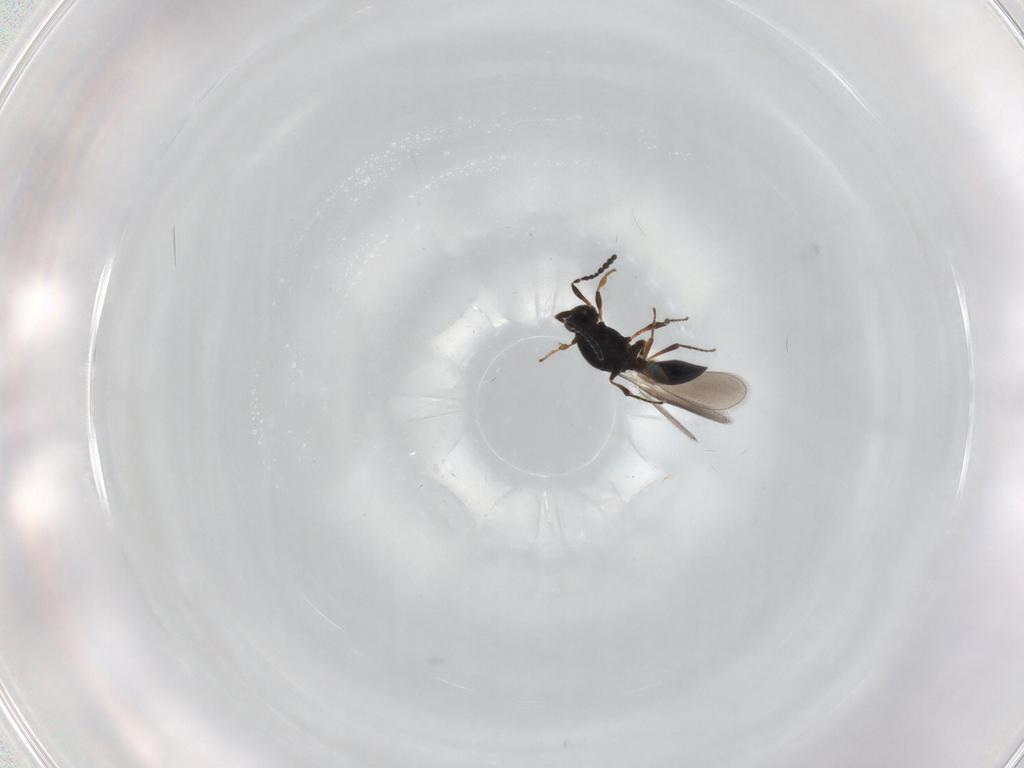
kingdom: Animalia
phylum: Arthropoda
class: Insecta
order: Hymenoptera
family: Platygastridae
